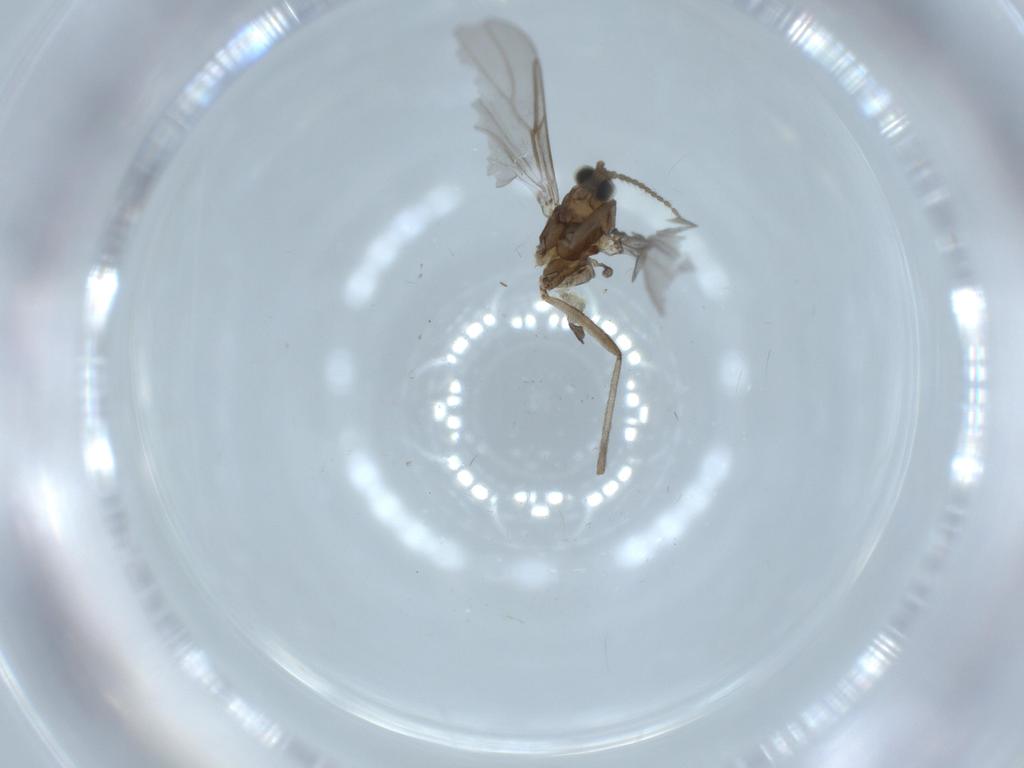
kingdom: Animalia
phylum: Arthropoda
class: Insecta
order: Diptera
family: Cecidomyiidae
